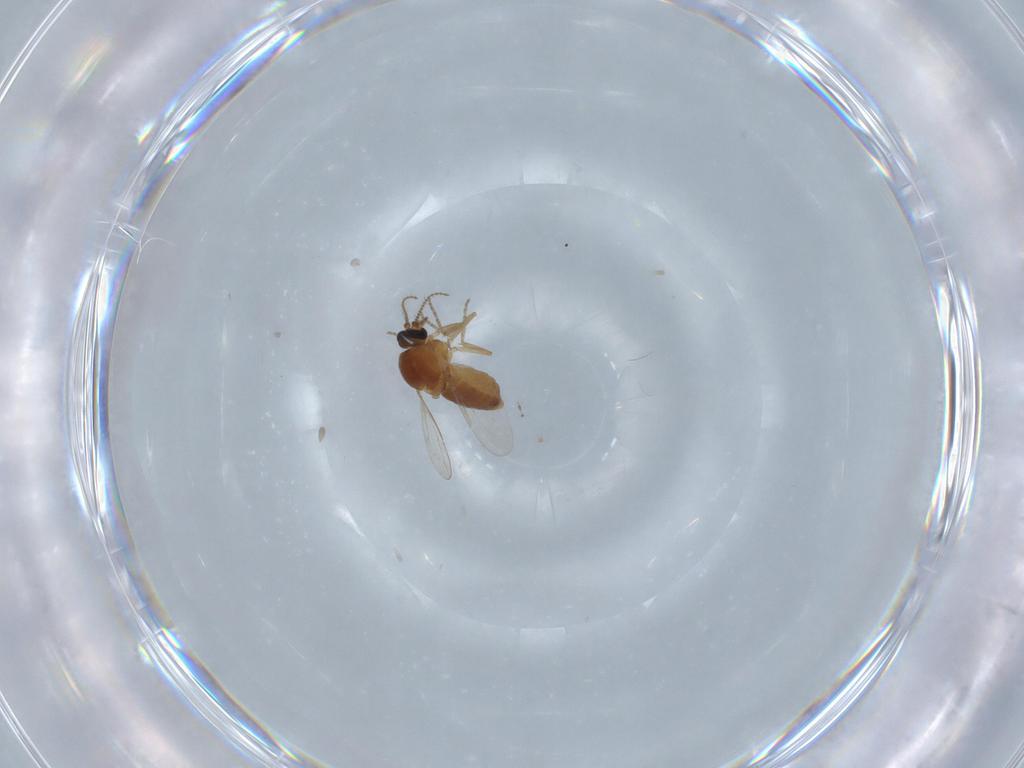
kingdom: Animalia
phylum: Arthropoda
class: Insecta
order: Diptera
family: Ceratopogonidae
